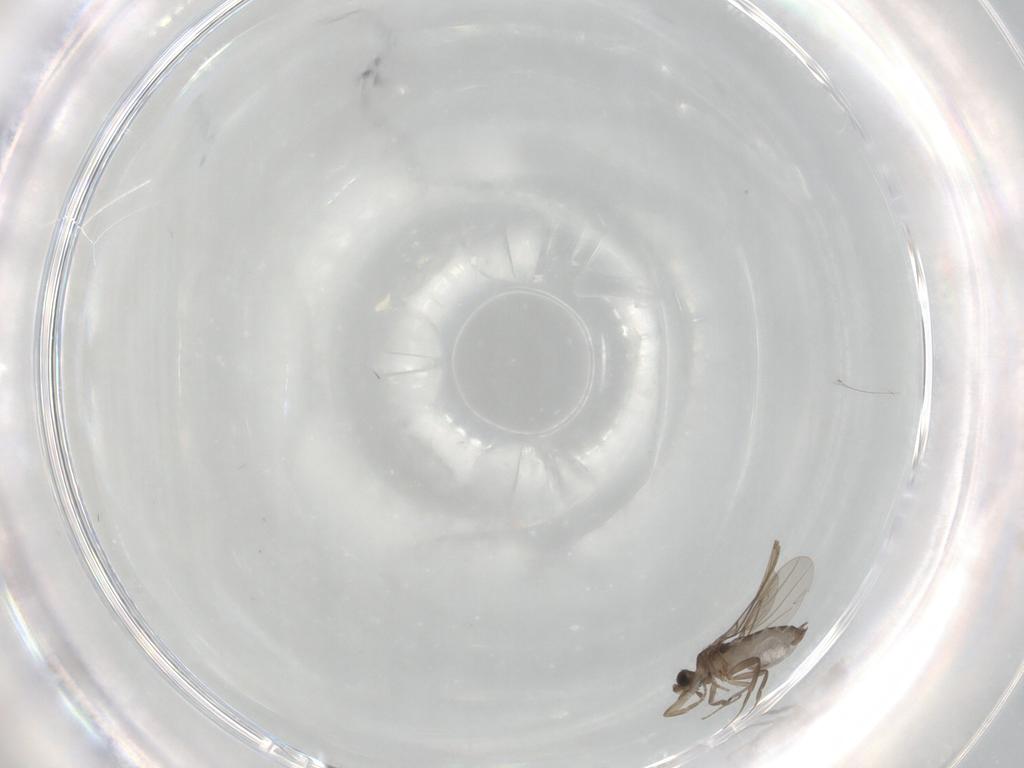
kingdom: Animalia
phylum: Arthropoda
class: Insecta
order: Diptera
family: Phoridae
